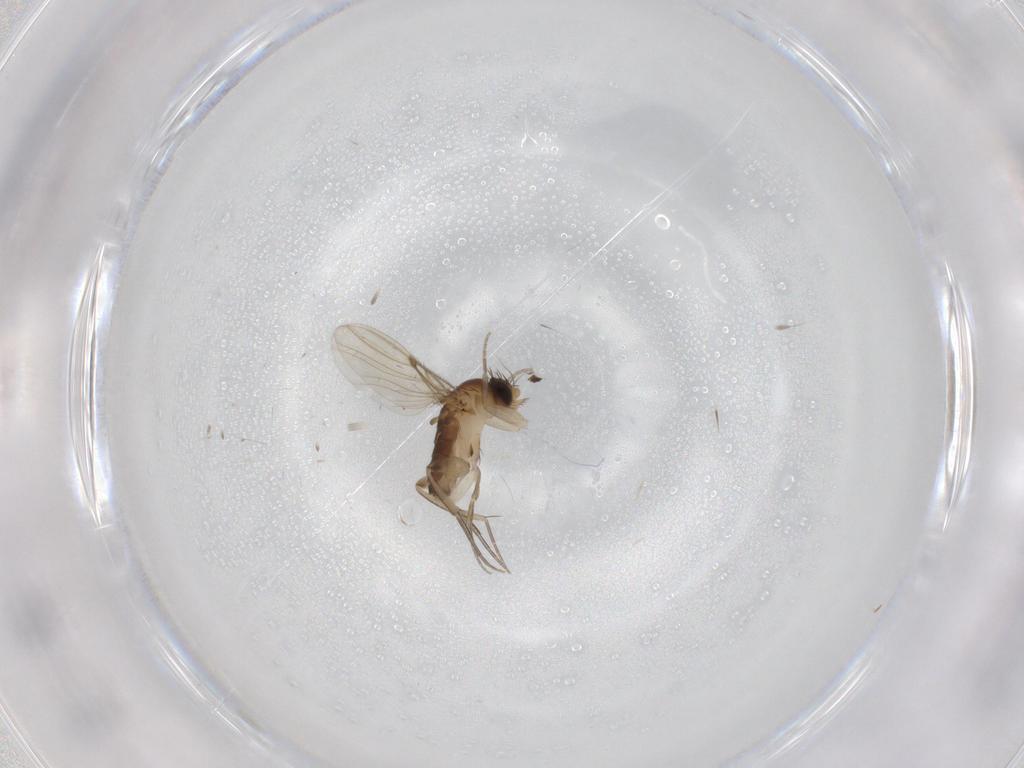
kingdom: Animalia
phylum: Arthropoda
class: Insecta
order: Diptera
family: Phoridae
